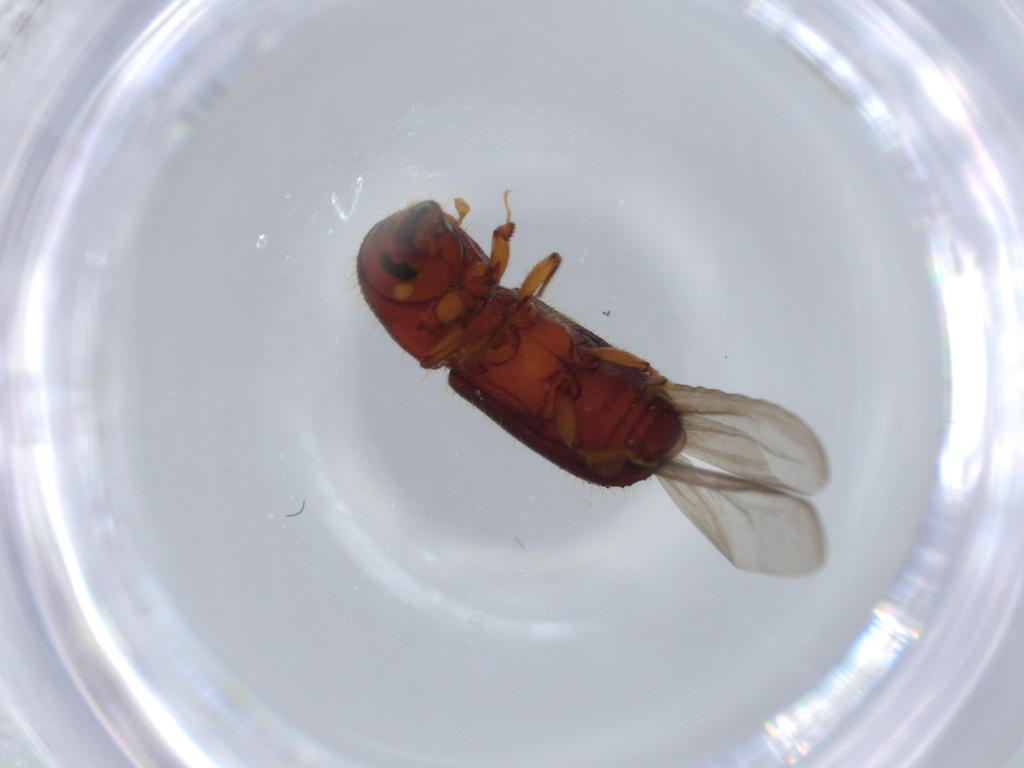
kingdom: Animalia
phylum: Arthropoda
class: Insecta
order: Coleoptera
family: Curculionidae
